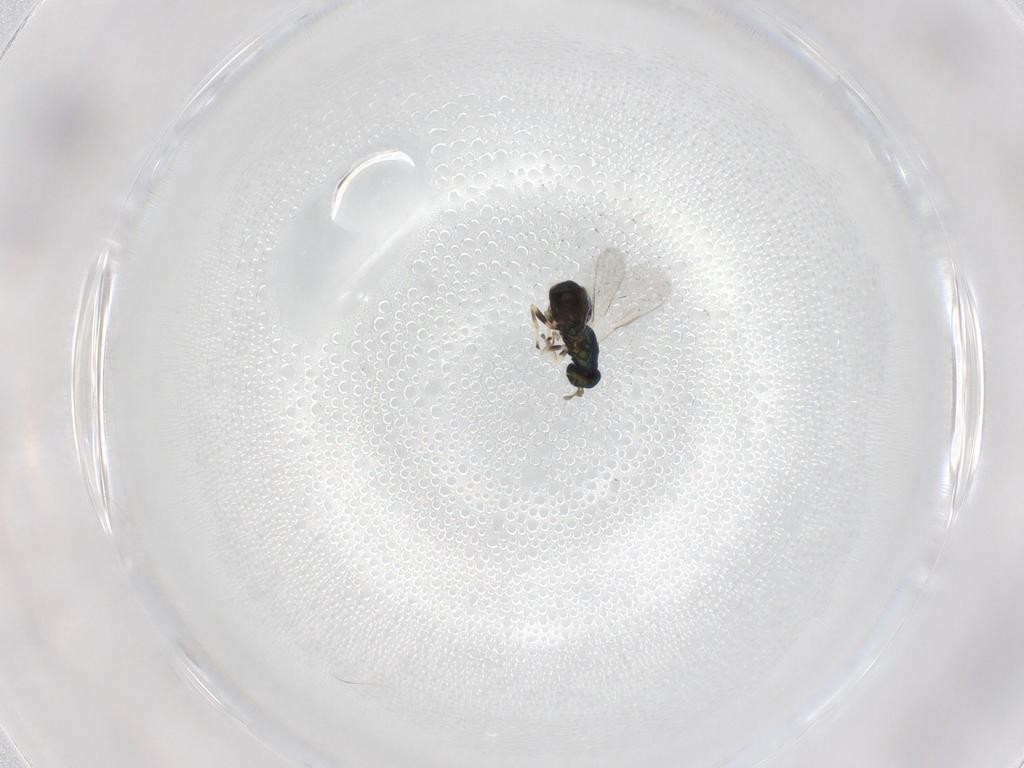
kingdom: Animalia
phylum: Arthropoda
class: Insecta
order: Hymenoptera
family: Eulophidae
